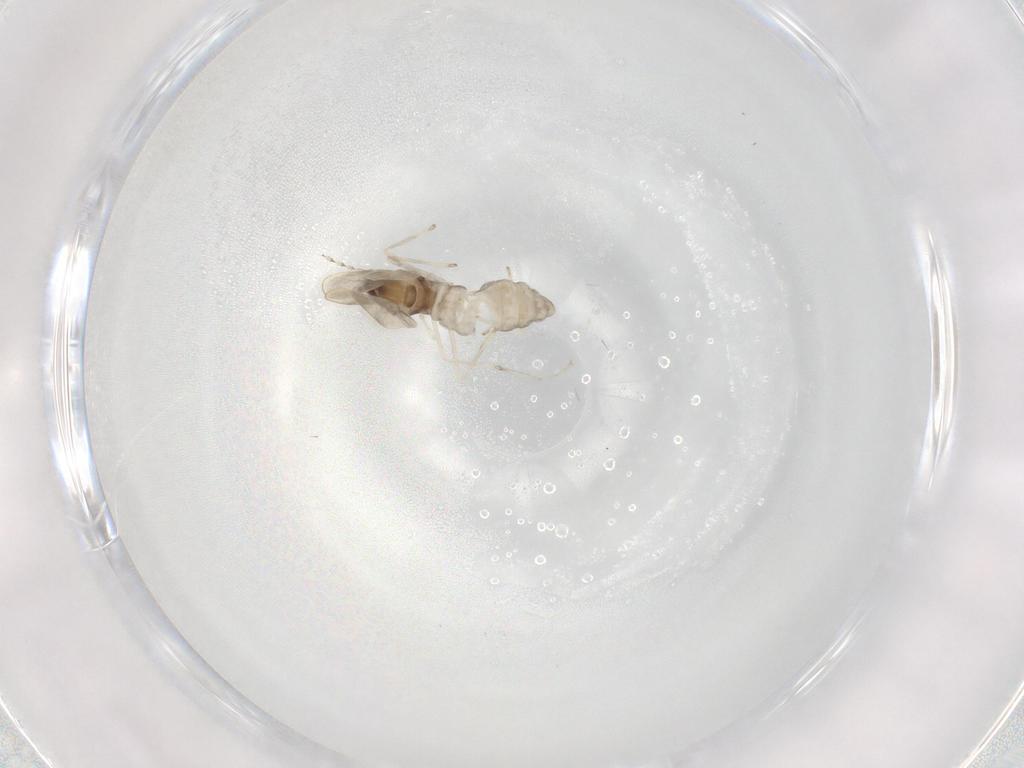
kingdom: Animalia
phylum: Arthropoda
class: Insecta
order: Diptera
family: Cecidomyiidae
